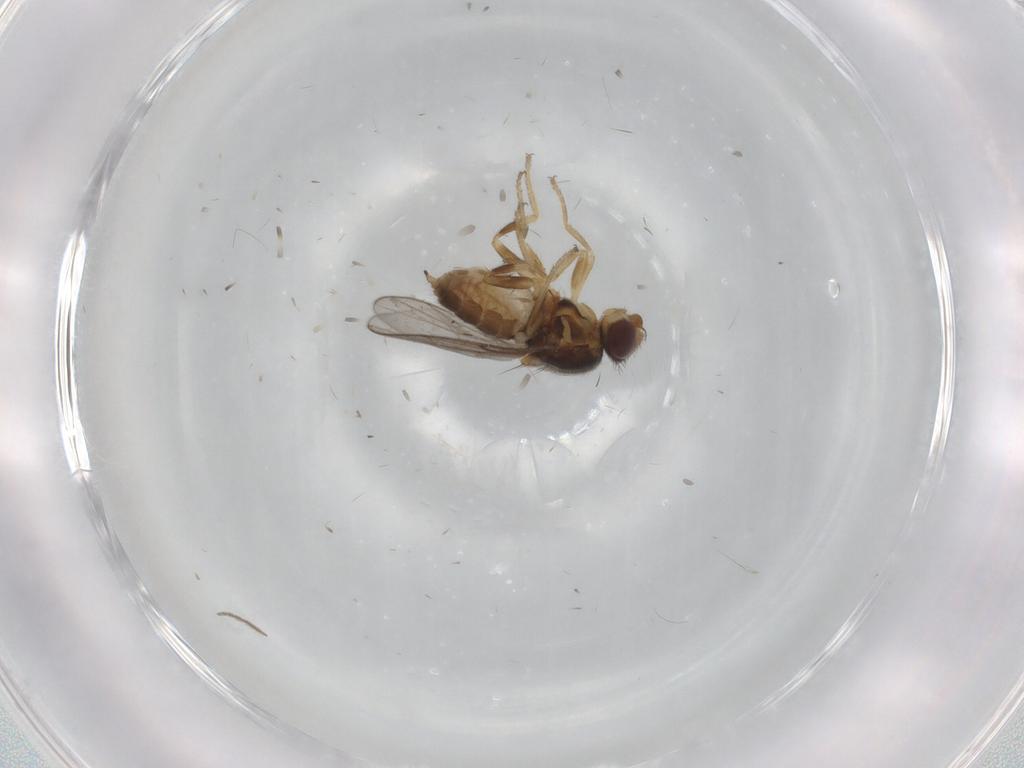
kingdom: Animalia
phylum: Arthropoda
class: Insecta
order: Diptera
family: Chloropidae
